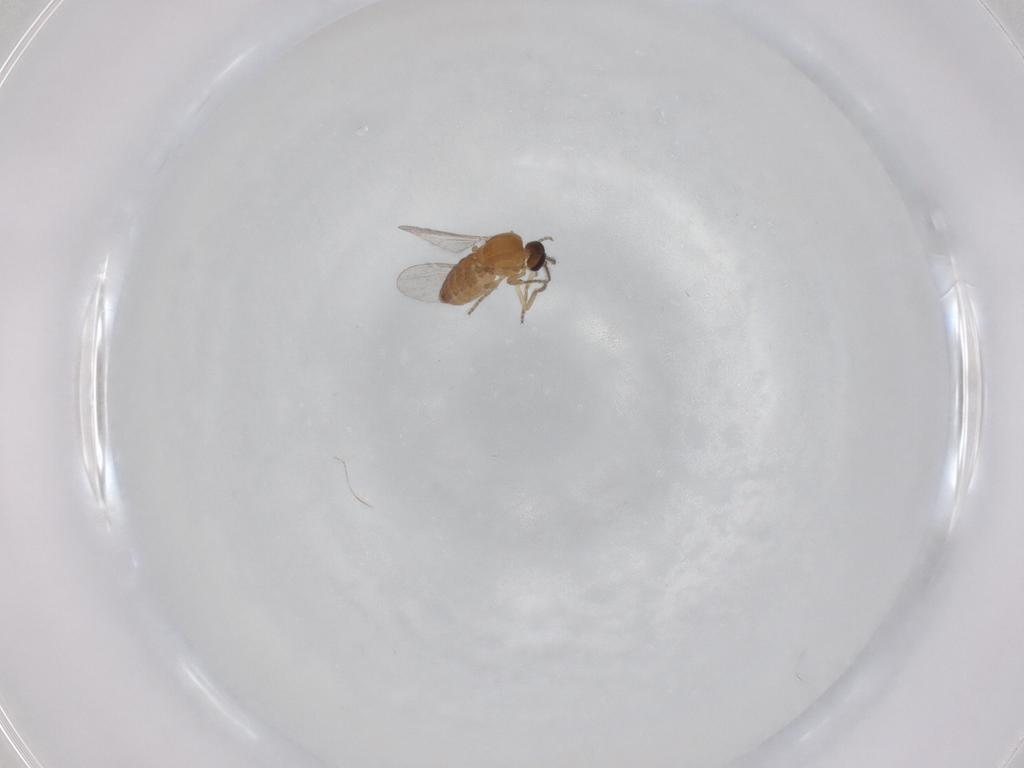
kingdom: Animalia
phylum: Arthropoda
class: Insecta
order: Diptera
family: Ceratopogonidae
